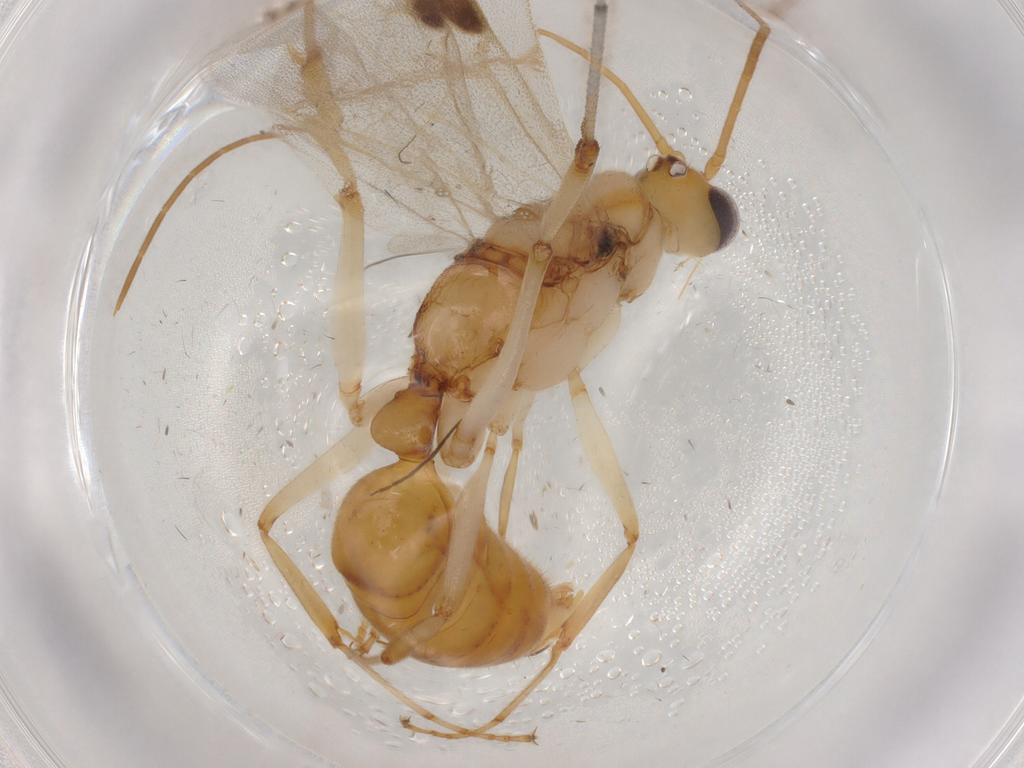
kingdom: Animalia
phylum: Arthropoda
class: Insecta
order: Hymenoptera
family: Formicidae
